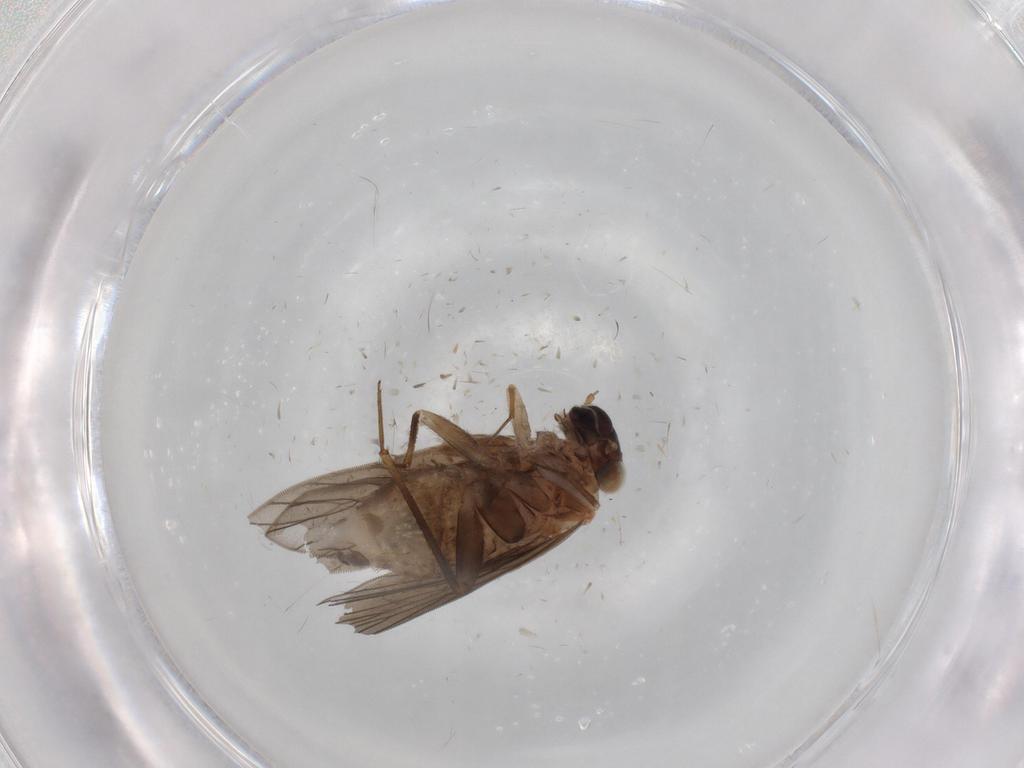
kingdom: Animalia
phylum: Arthropoda
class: Insecta
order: Psocodea
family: Lepidopsocidae
